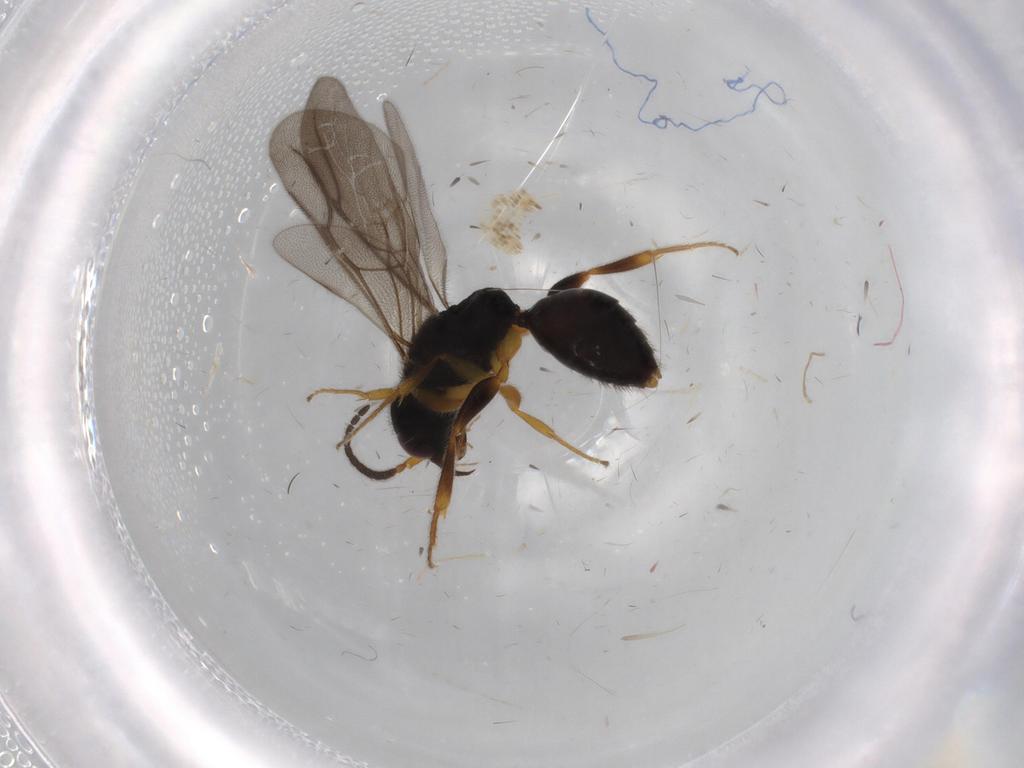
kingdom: Animalia
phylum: Arthropoda
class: Insecta
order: Hymenoptera
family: Bethylidae
